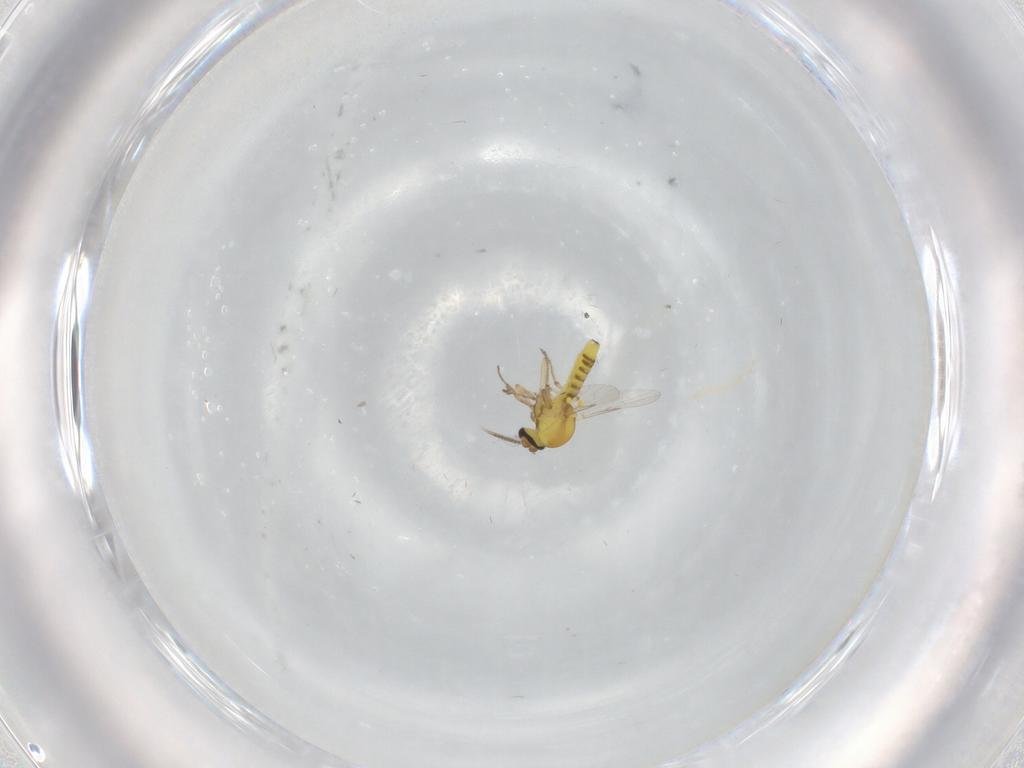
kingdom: Animalia
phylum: Arthropoda
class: Insecta
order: Diptera
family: Ceratopogonidae
